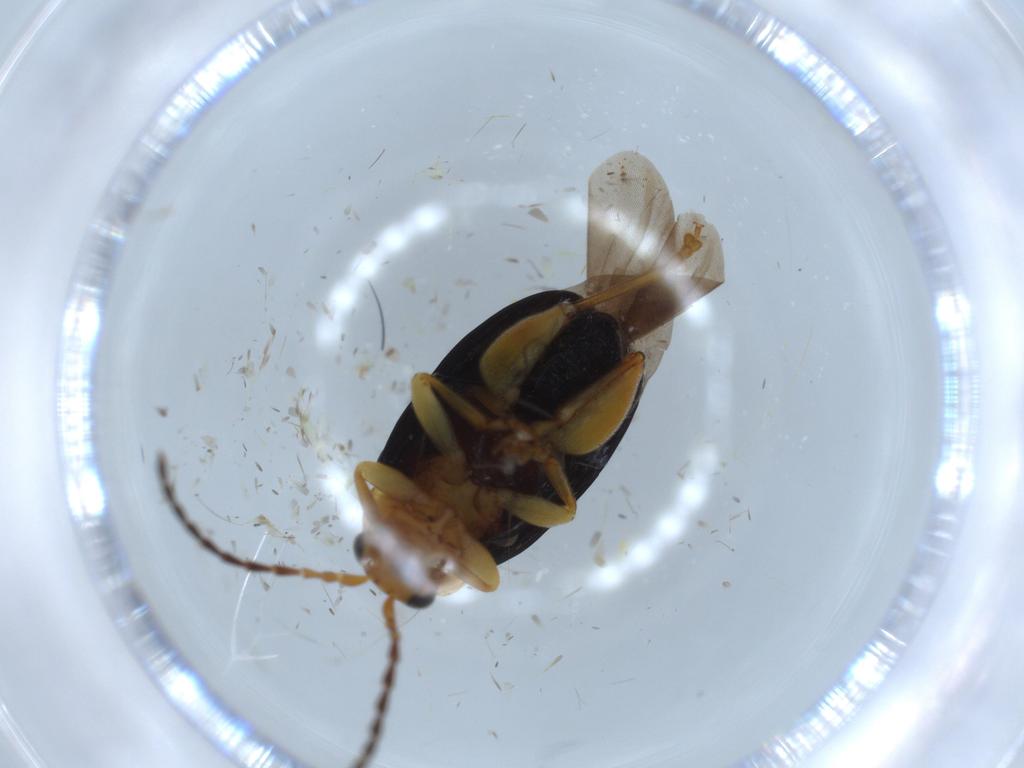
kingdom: Animalia
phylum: Arthropoda
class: Insecta
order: Coleoptera
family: Chrysomelidae
